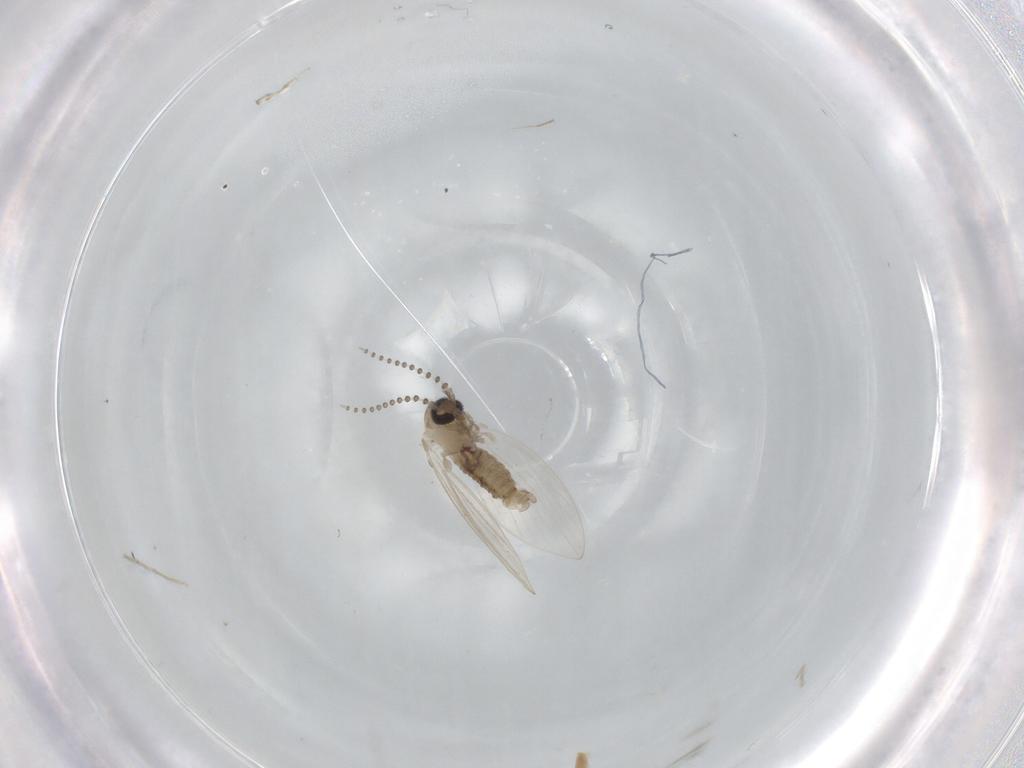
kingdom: Animalia
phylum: Arthropoda
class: Insecta
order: Diptera
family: Psychodidae
